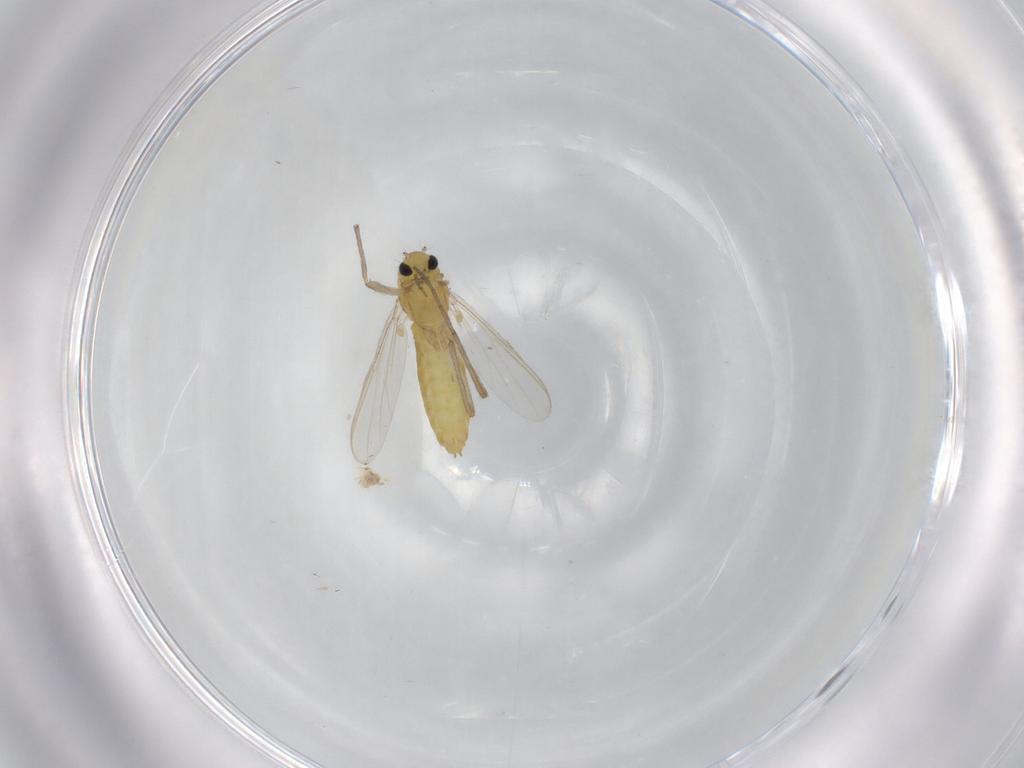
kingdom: Animalia
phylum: Arthropoda
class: Insecta
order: Diptera
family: Chironomidae
